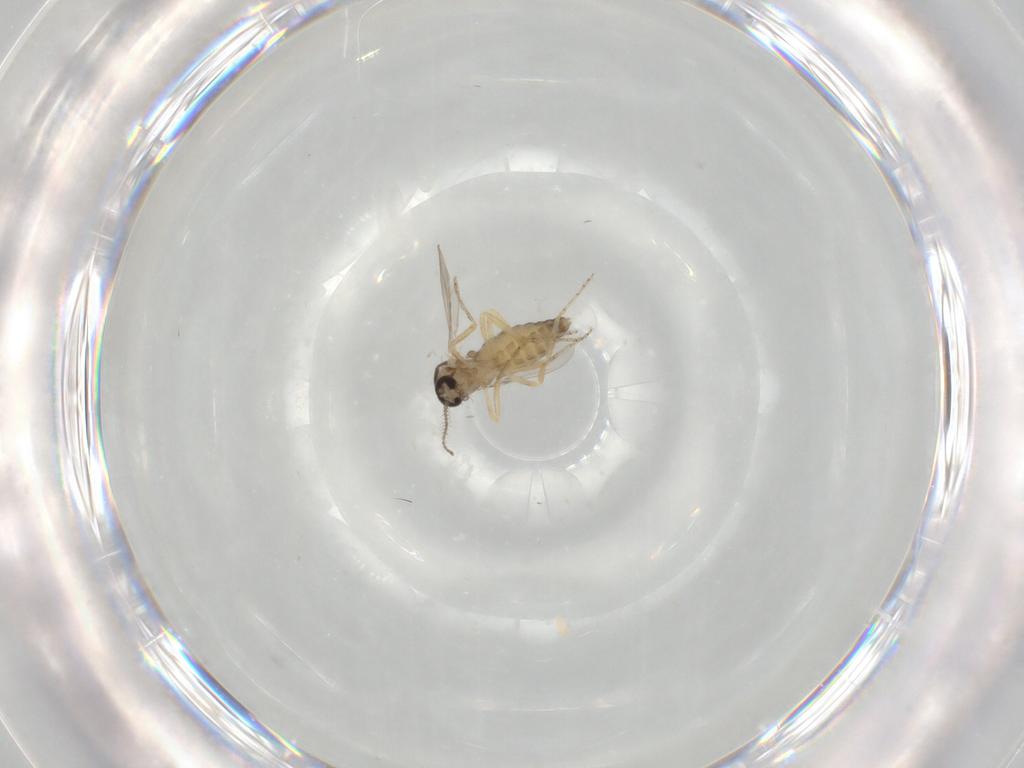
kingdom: Animalia
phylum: Arthropoda
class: Insecta
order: Diptera
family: Ceratopogonidae
